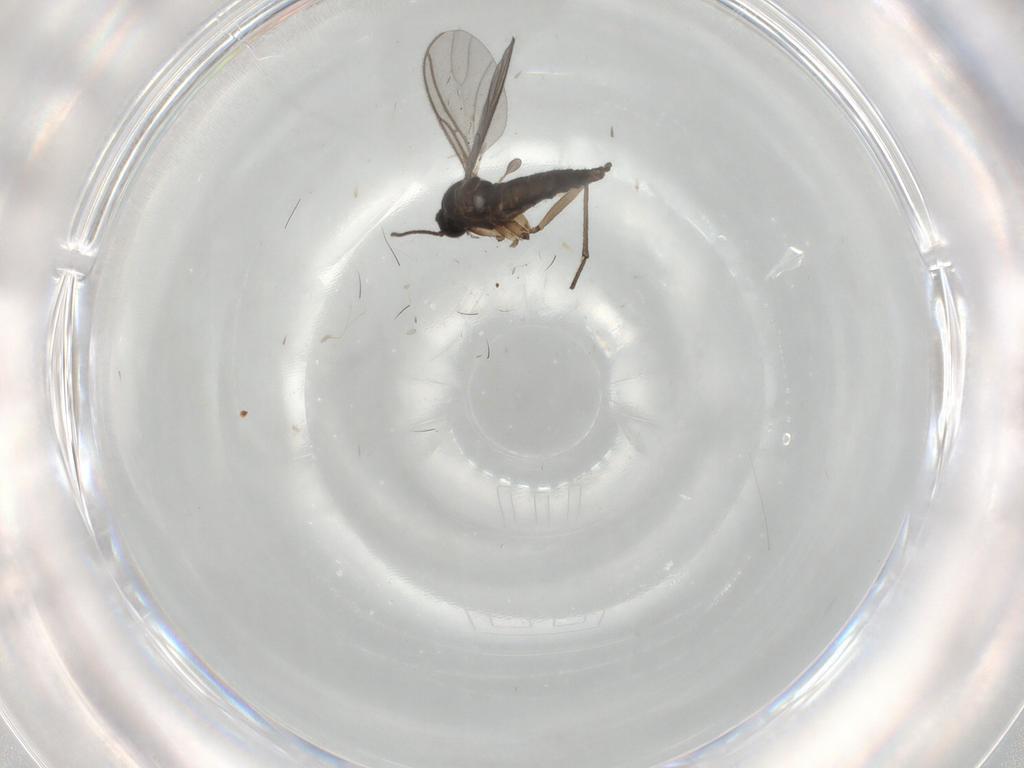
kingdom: Animalia
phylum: Arthropoda
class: Insecta
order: Diptera
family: Sciaridae
